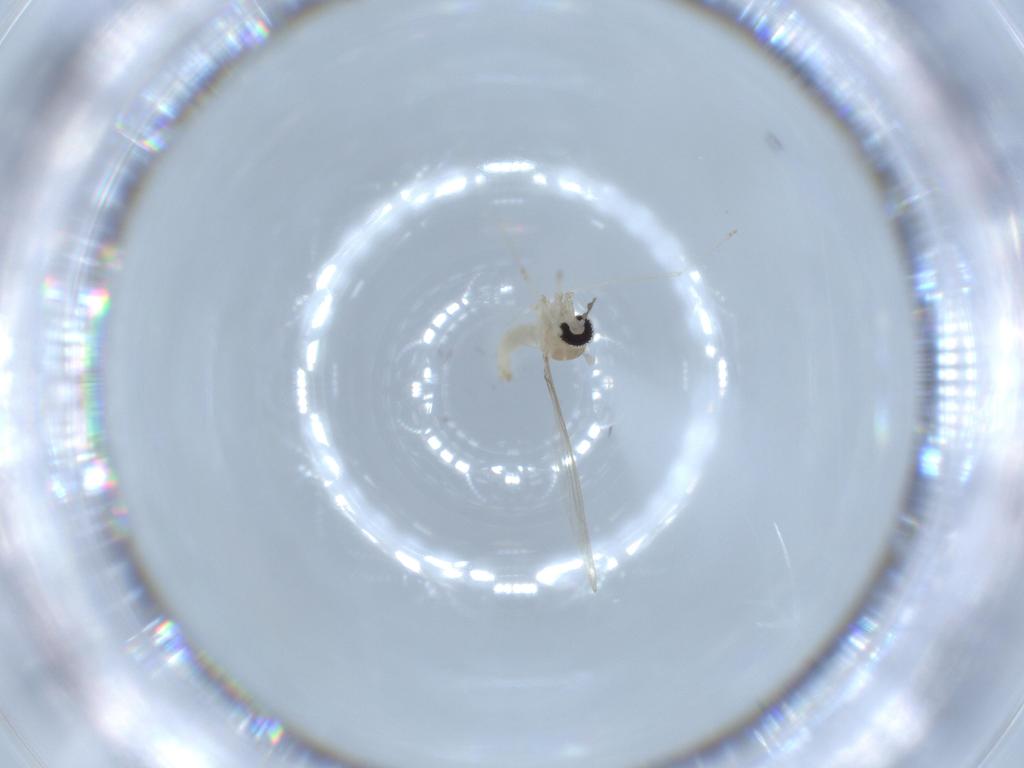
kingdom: Animalia
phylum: Arthropoda
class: Insecta
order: Diptera
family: Cecidomyiidae
